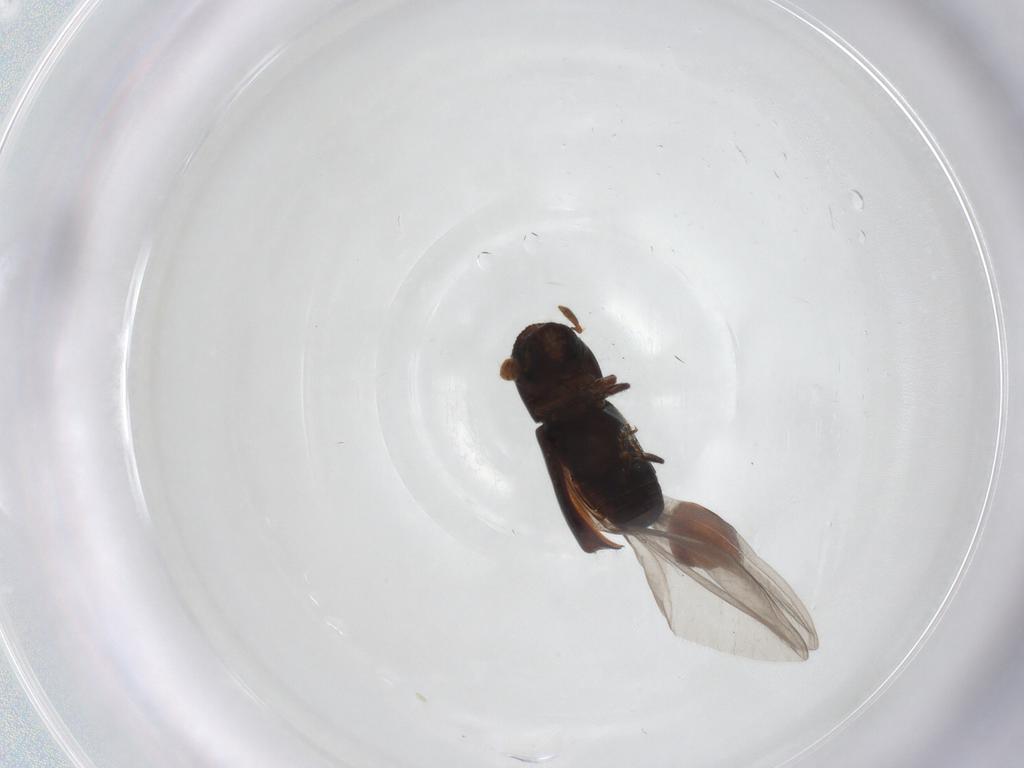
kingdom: Animalia
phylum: Arthropoda
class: Insecta
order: Coleoptera
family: Curculionidae
